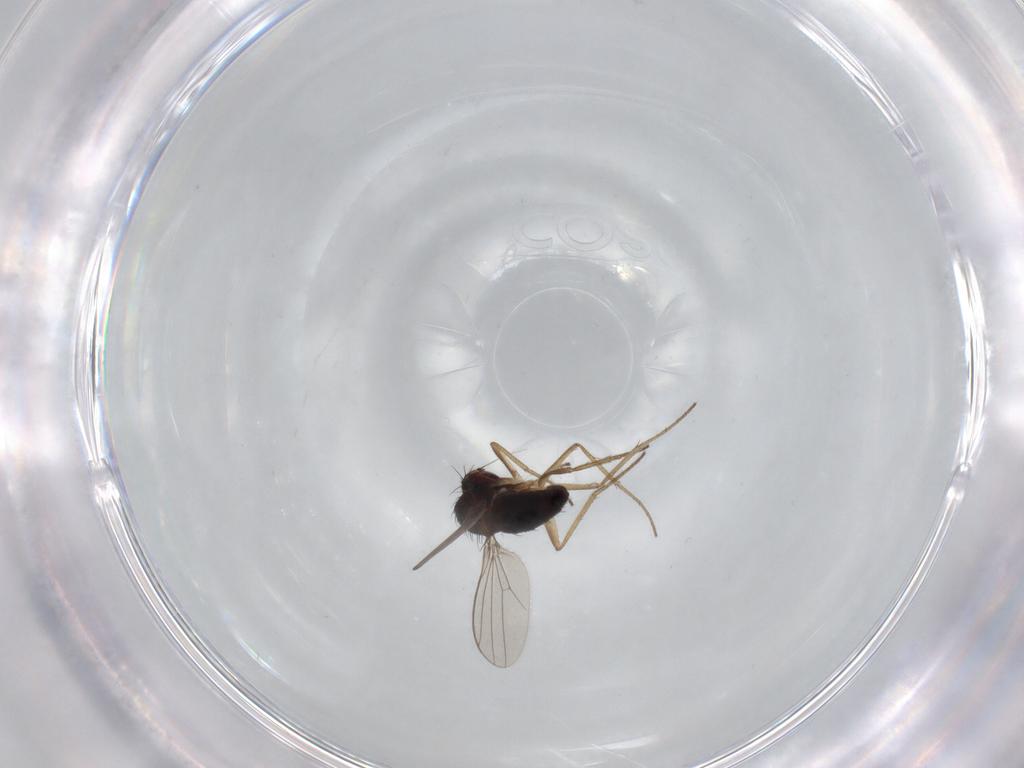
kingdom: Animalia
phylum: Arthropoda
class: Insecta
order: Diptera
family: Dolichopodidae
